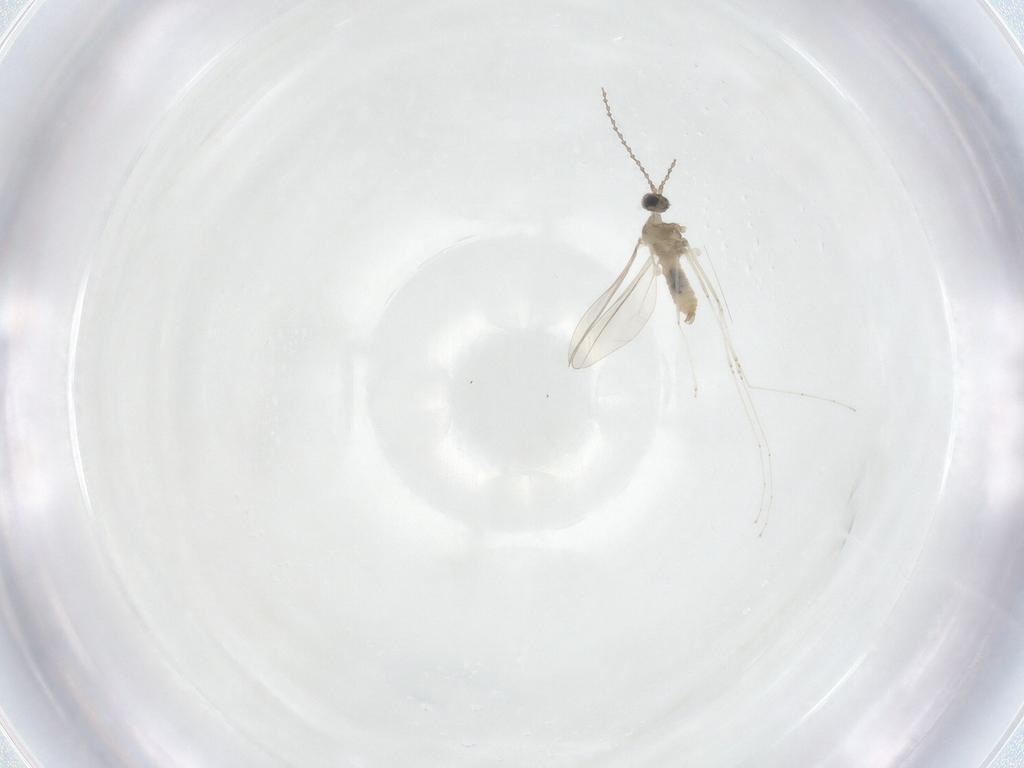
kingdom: Animalia
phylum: Arthropoda
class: Insecta
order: Diptera
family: Cecidomyiidae
